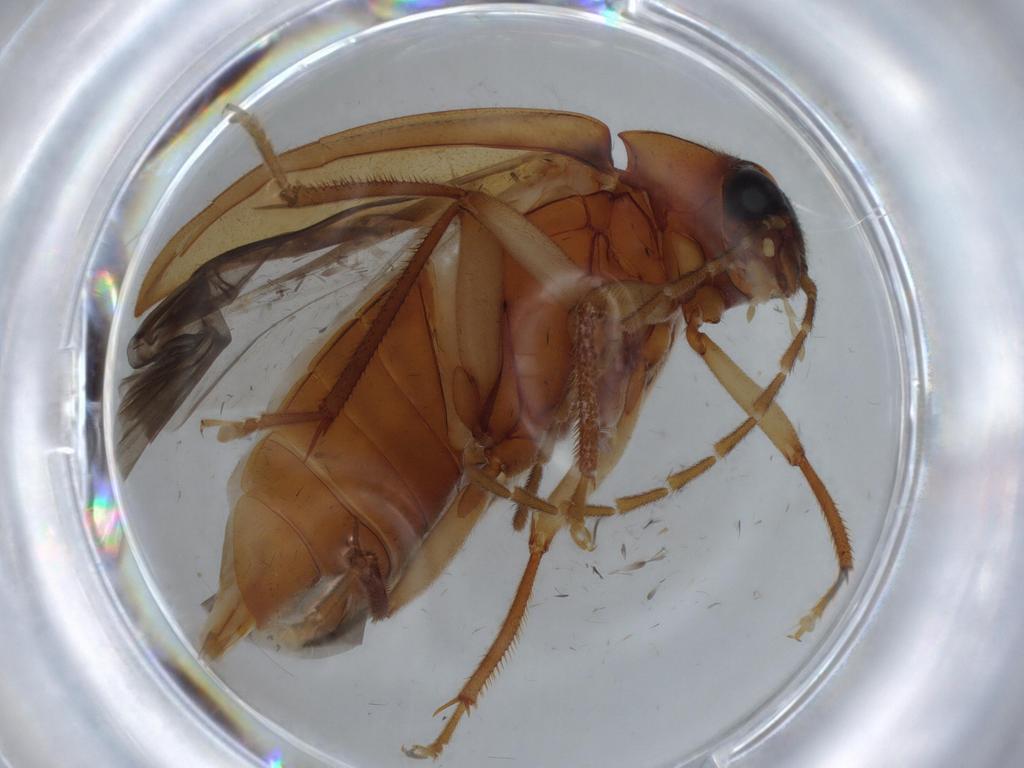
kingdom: Animalia
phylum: Arthropoda
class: Insecta
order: Coleoptera
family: Ptilodactylidae
